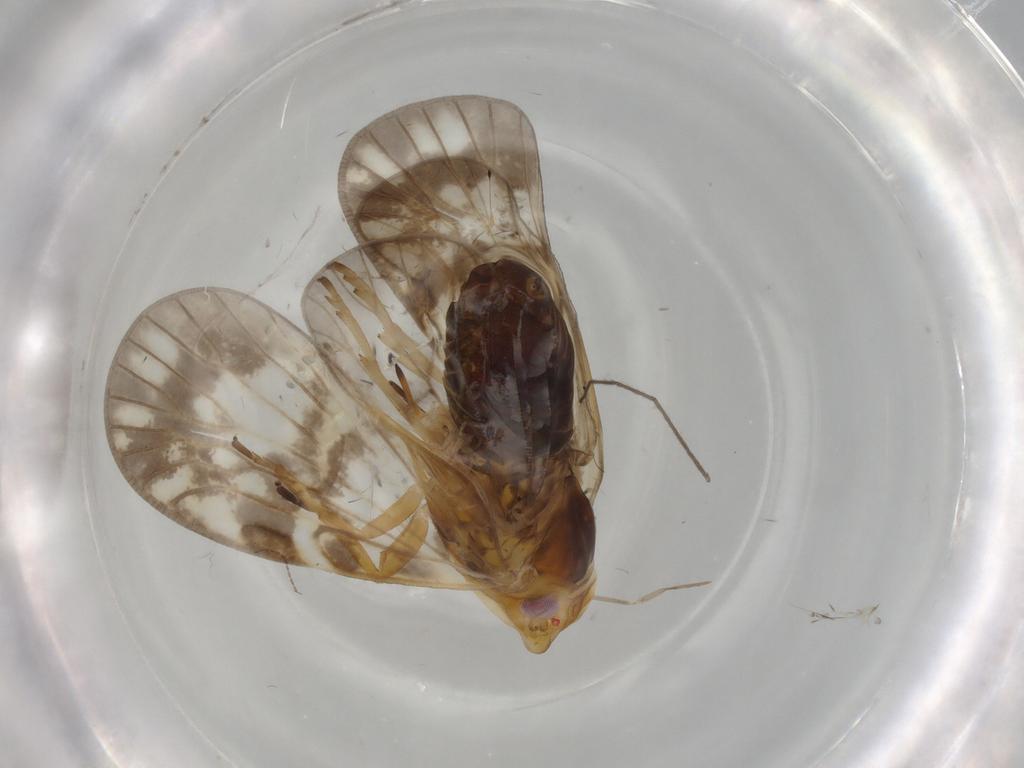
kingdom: Animalia
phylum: Arthropoda
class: Insecta
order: Hemiptera
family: Cixiidae
